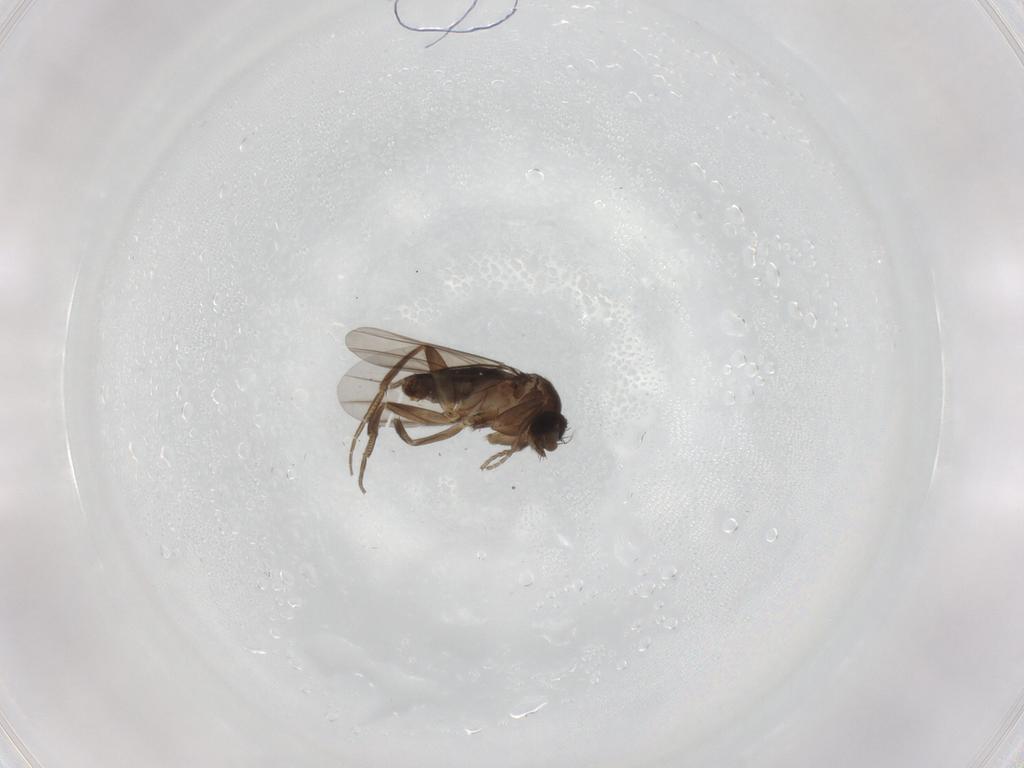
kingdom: Animalia
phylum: Arthropoda
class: Insecta
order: Diptera
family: Phoridae
